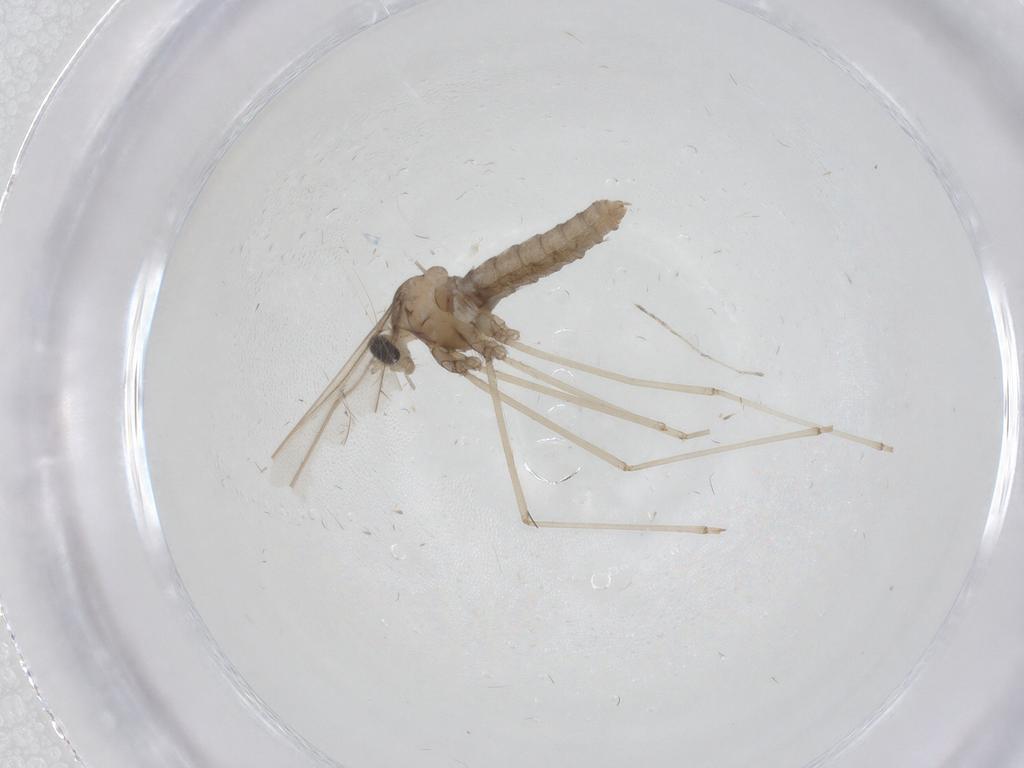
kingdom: Animalia
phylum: Arthropoda
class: Insecta
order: Diptera
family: Cecidomyiidae
